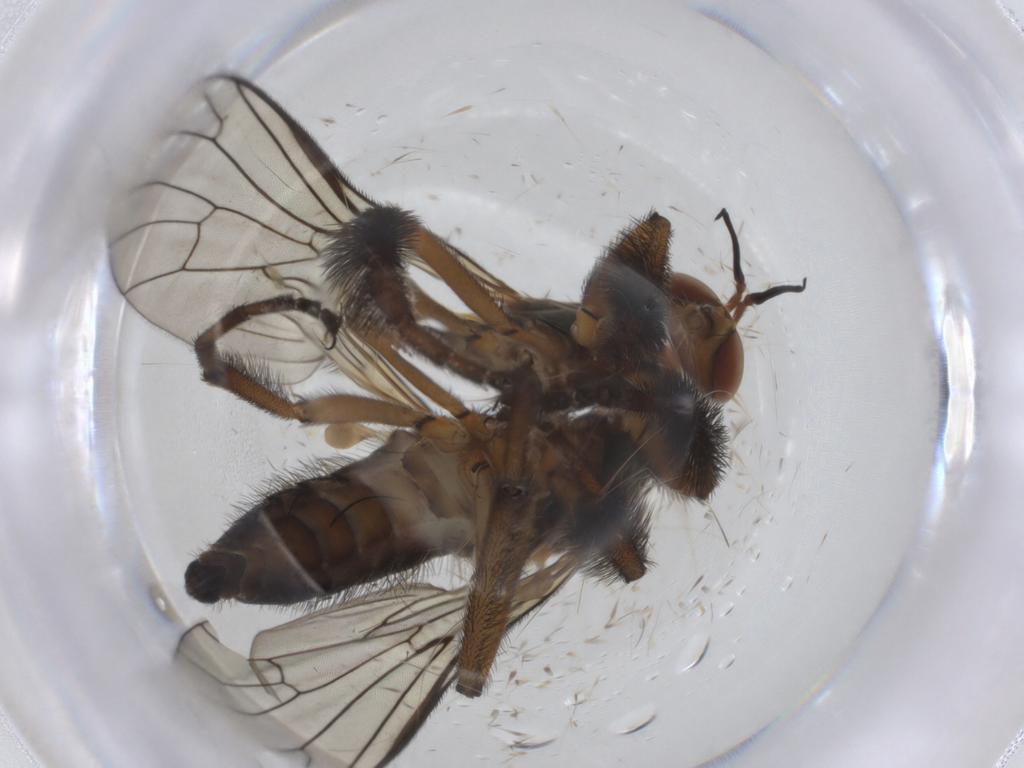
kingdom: Animalia
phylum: Arthropoda
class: Insecta
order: Diptera
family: Empididae
